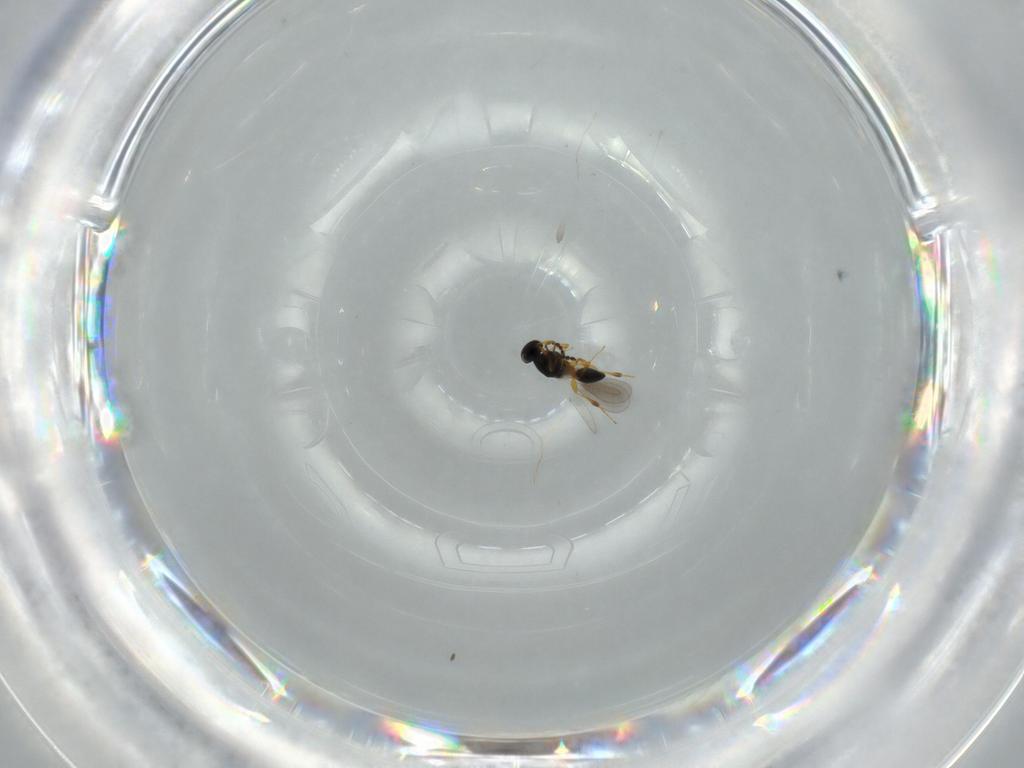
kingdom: Animalia
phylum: Arthropoda
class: Insecta
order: Hymenoptera
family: Platygastridae
